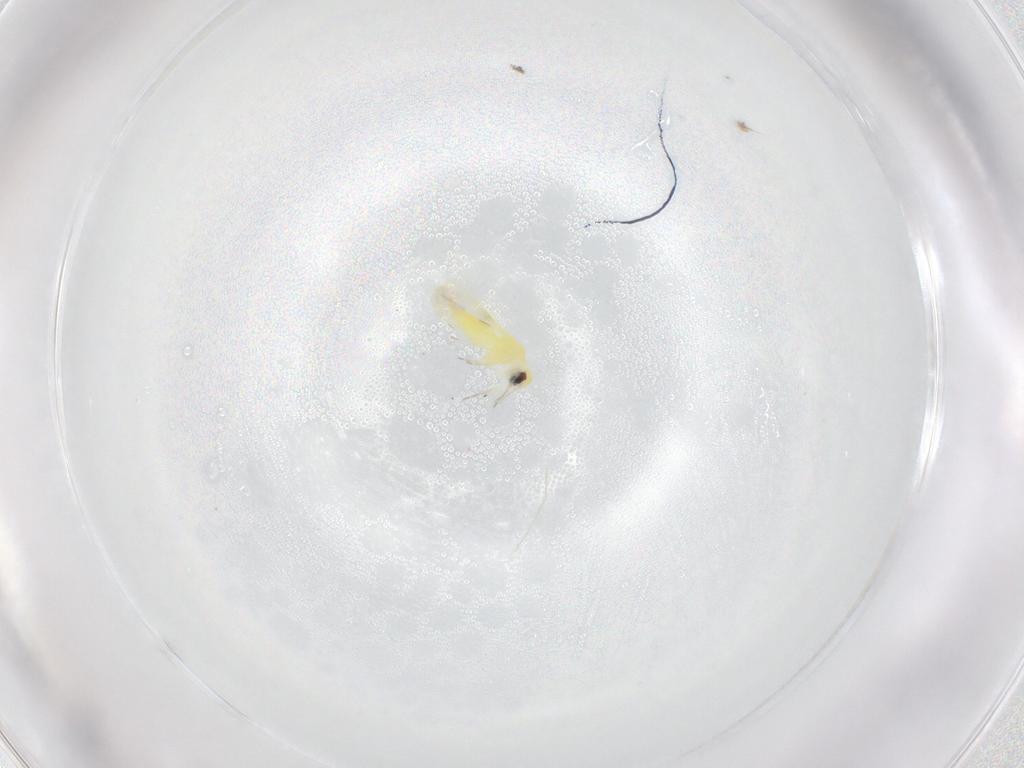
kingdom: Animalia
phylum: Arthropoda
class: Insecta
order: Hemiptera
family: Aphididae
